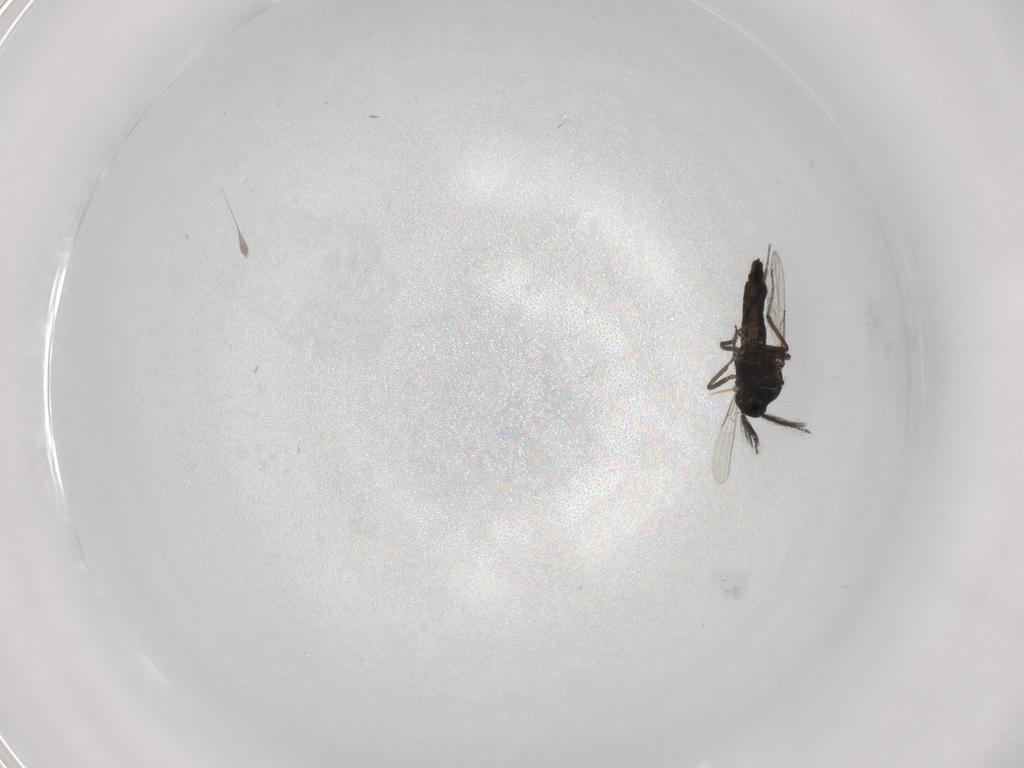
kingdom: Animalia
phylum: Arthropoda
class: Insecta
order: Diptera
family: Ceratopogonidae
